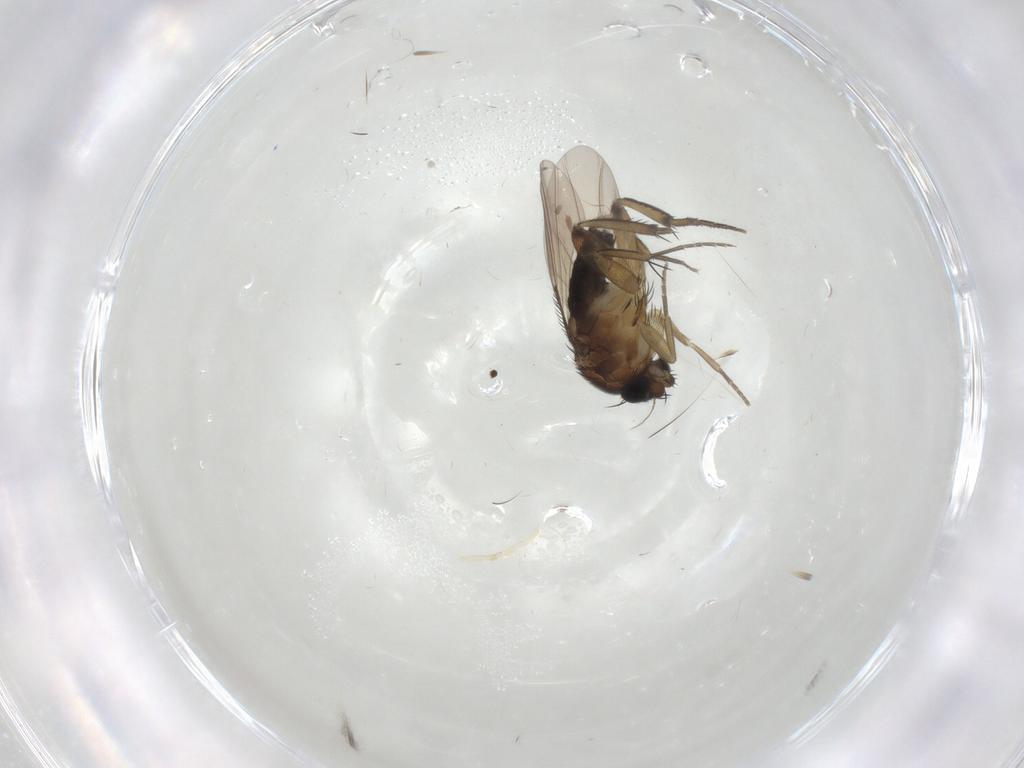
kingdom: Animalia
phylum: Arthropoda
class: Insecta
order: Diptera
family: Phoridae
